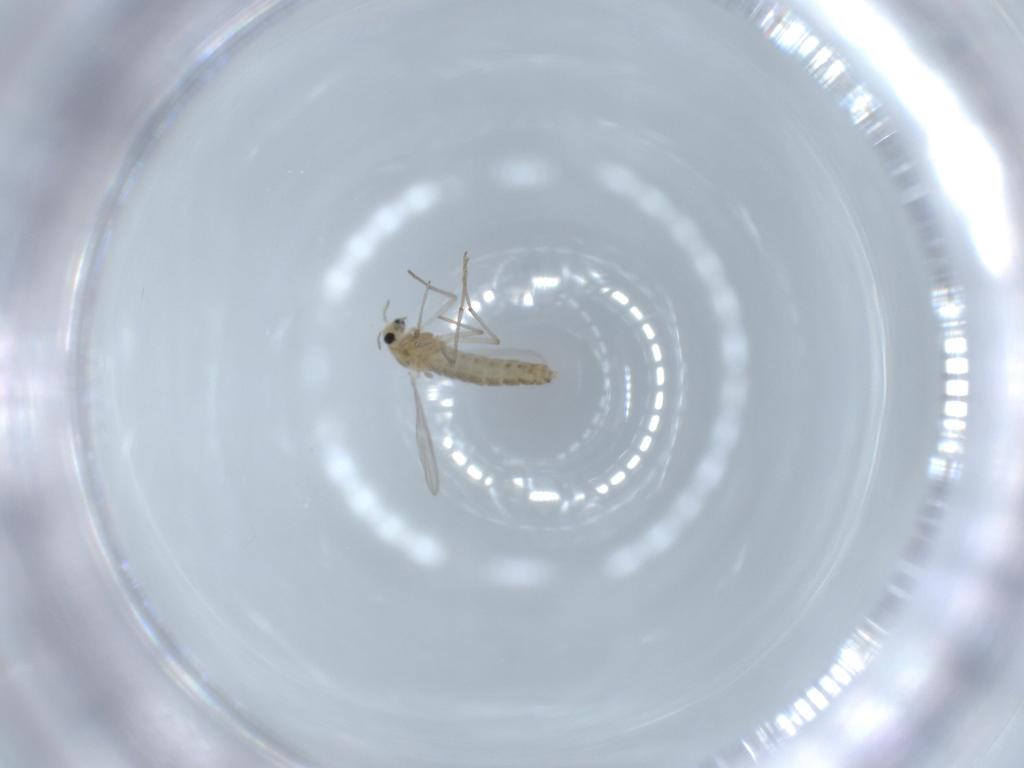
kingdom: Animalia
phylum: Arthropoda
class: Insecta
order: Diptera
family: Chironomidae
